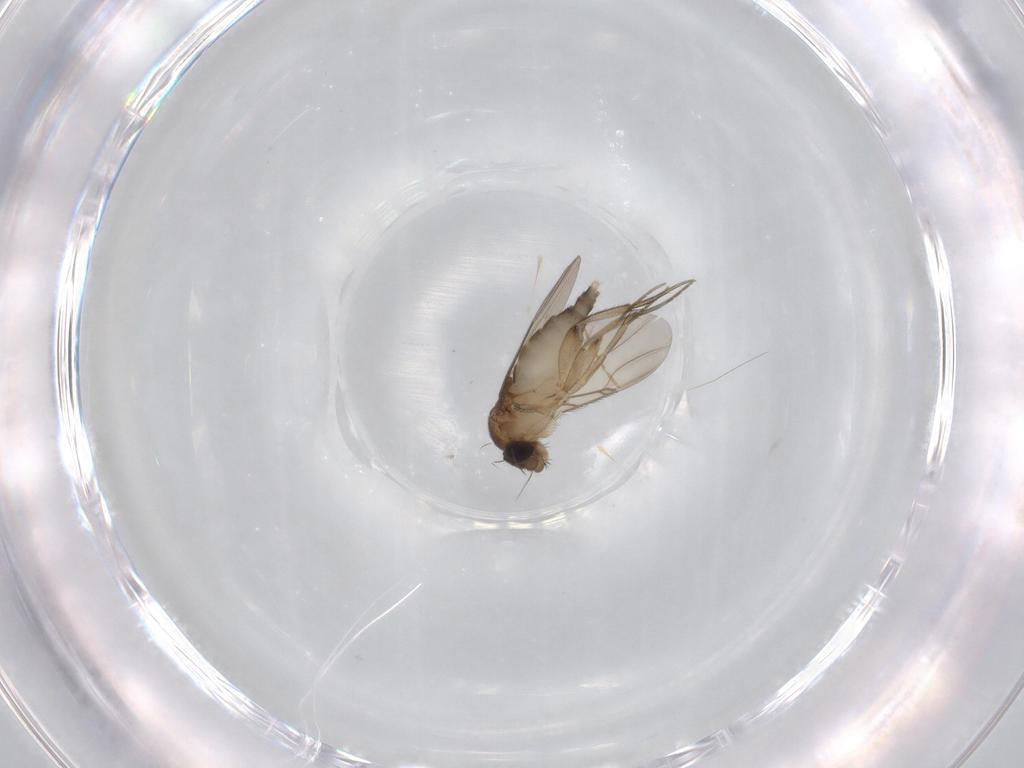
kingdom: Animalia
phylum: Arthropoda
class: Insecta
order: Diptera
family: Phoridae
